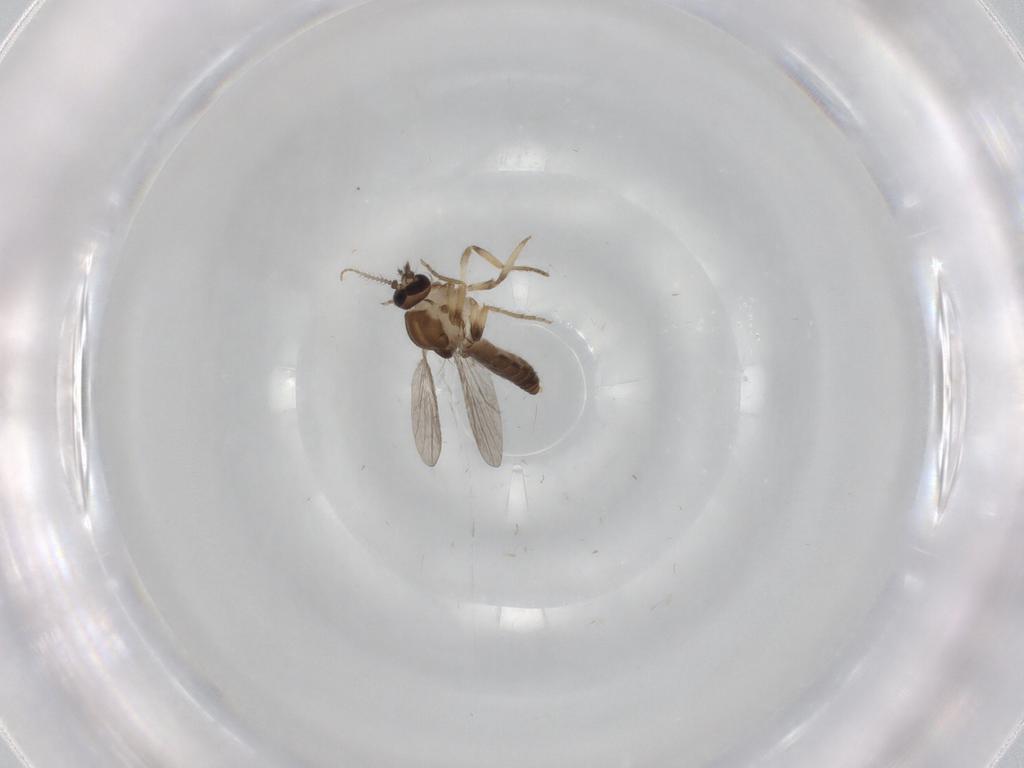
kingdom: Animalia
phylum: Arthropoda
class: Insecta
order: Diptera
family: Ceratopogonidae
